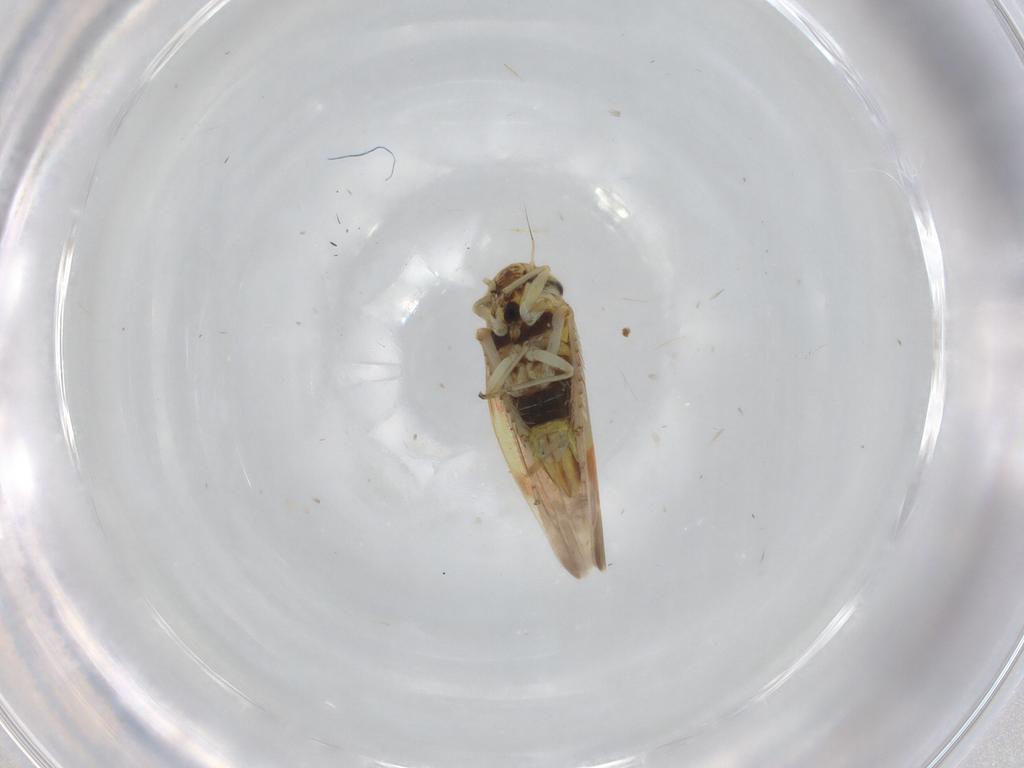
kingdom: Animalia
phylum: Arthropoda
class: Insecta
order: Hemiptera
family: Cicadellidae
